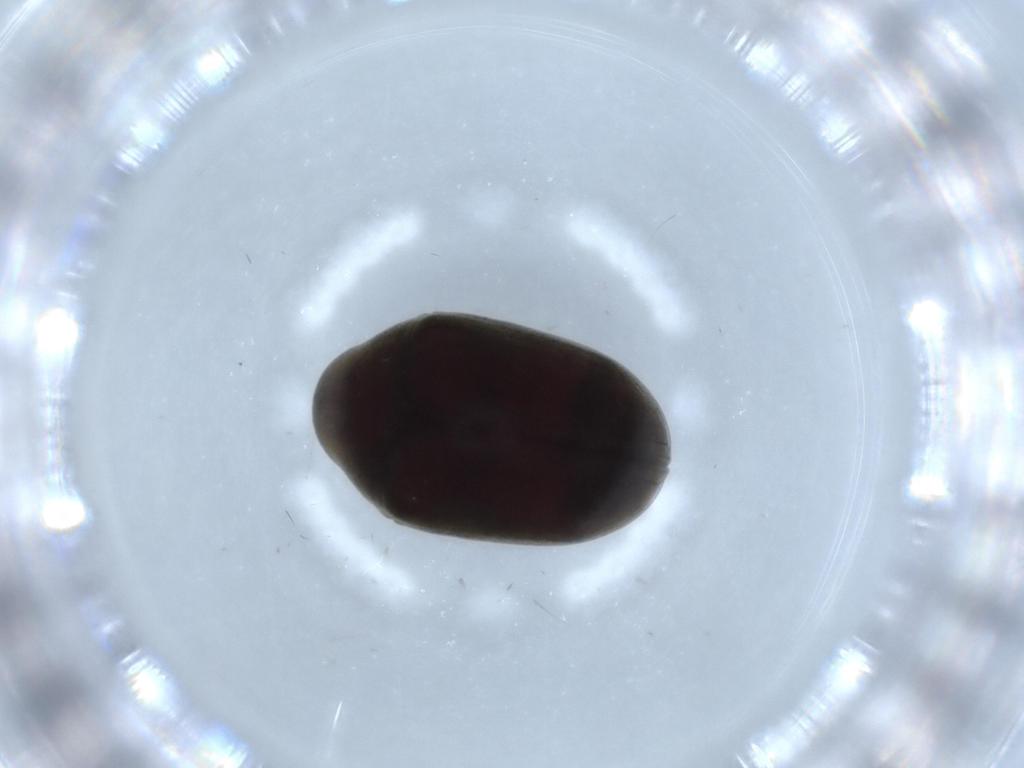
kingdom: Animalia
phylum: Arthropoda
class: Insecta
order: Coleoptera
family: Ptinidae
